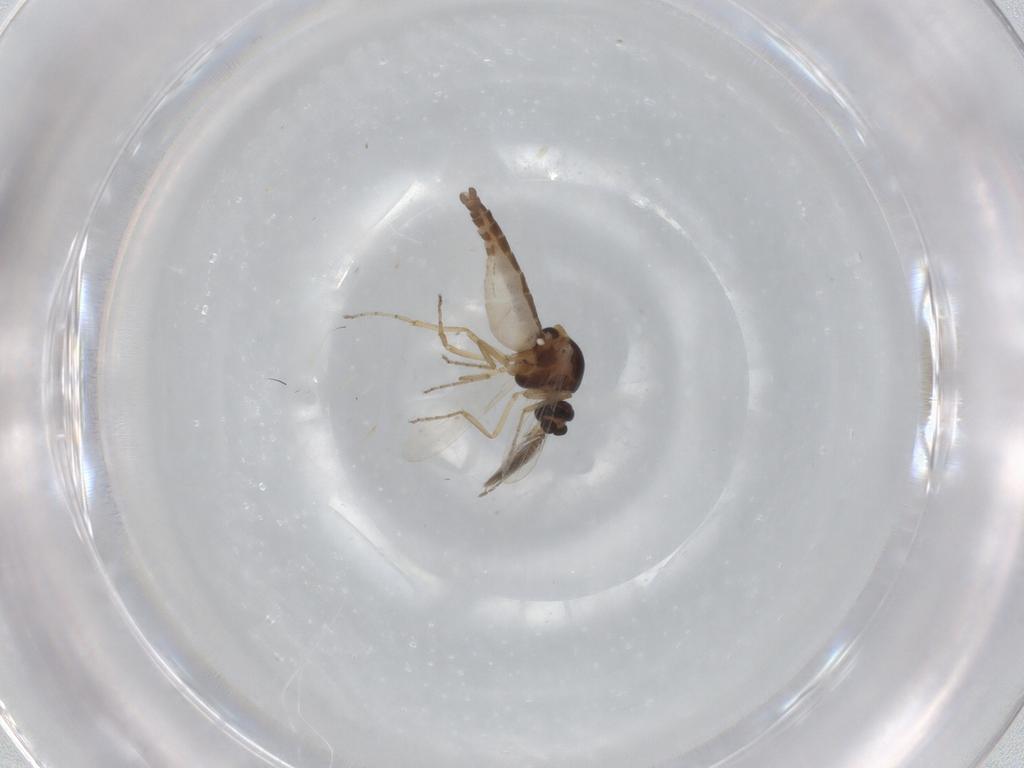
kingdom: Animalia
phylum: Arthropoda
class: Insecta
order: Diptera
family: Ceratopogonidae
